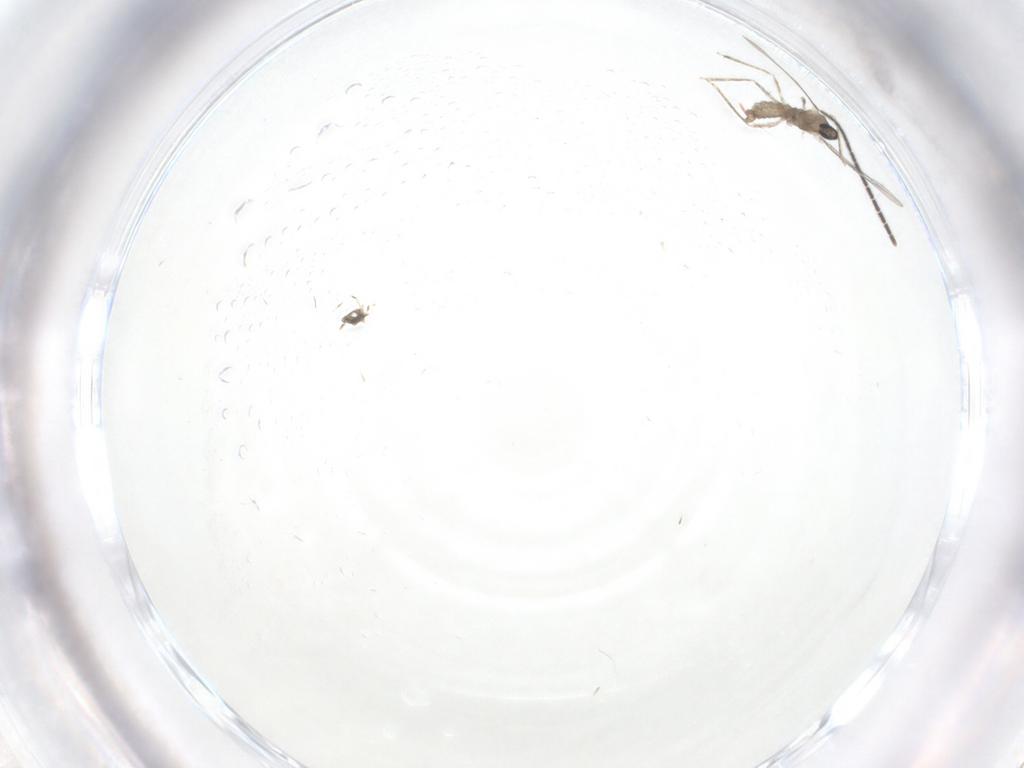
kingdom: Animalia
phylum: Arthropoda
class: Insecta
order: Diptera
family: Sciaridae
